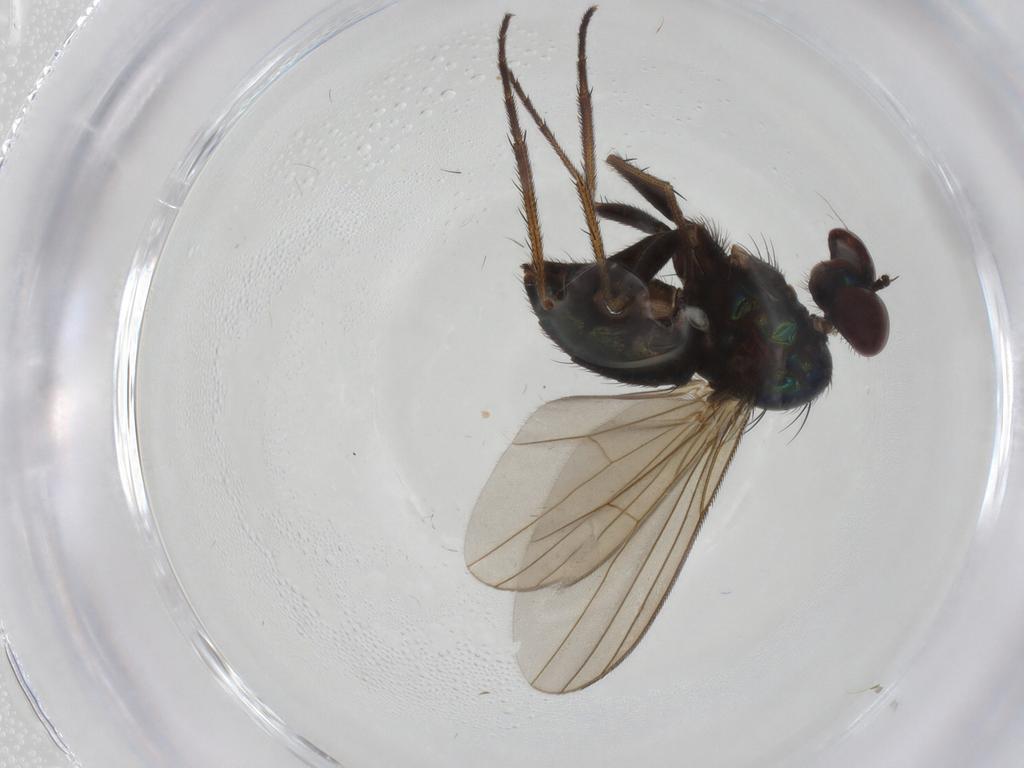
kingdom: Animalia
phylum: Arthropoda
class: Insecta
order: Diptera
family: Dolichopodidae
